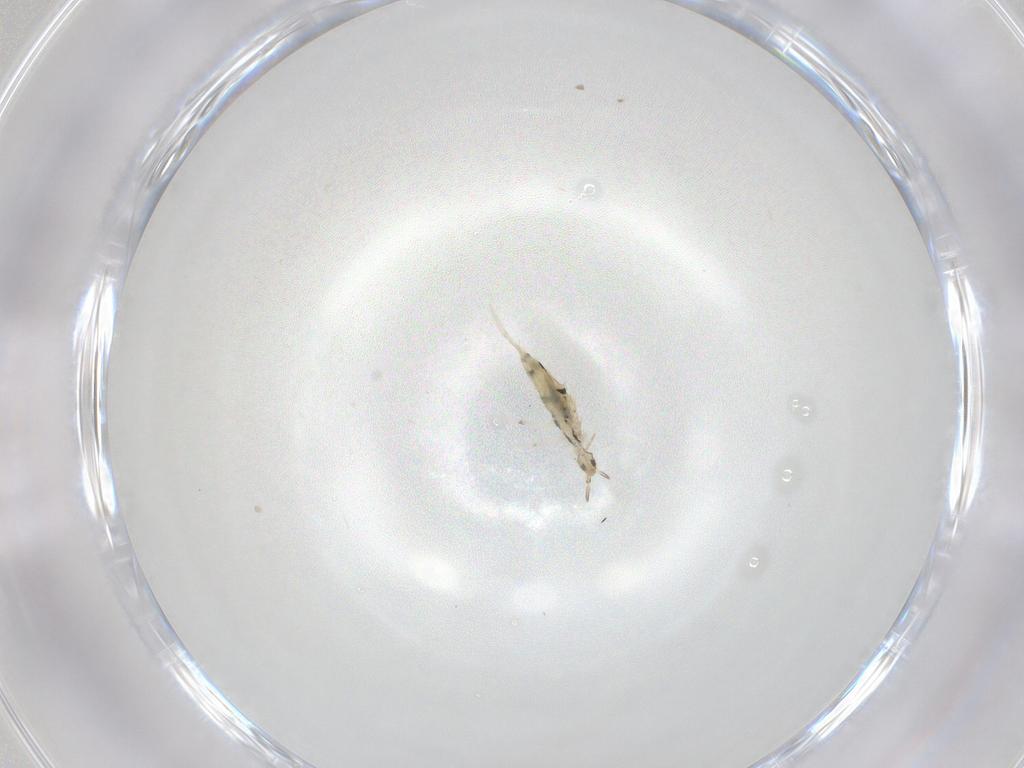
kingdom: Animalia
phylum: Arthropoda
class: Collembola
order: Entomobryomorpha
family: Entomobryidae
